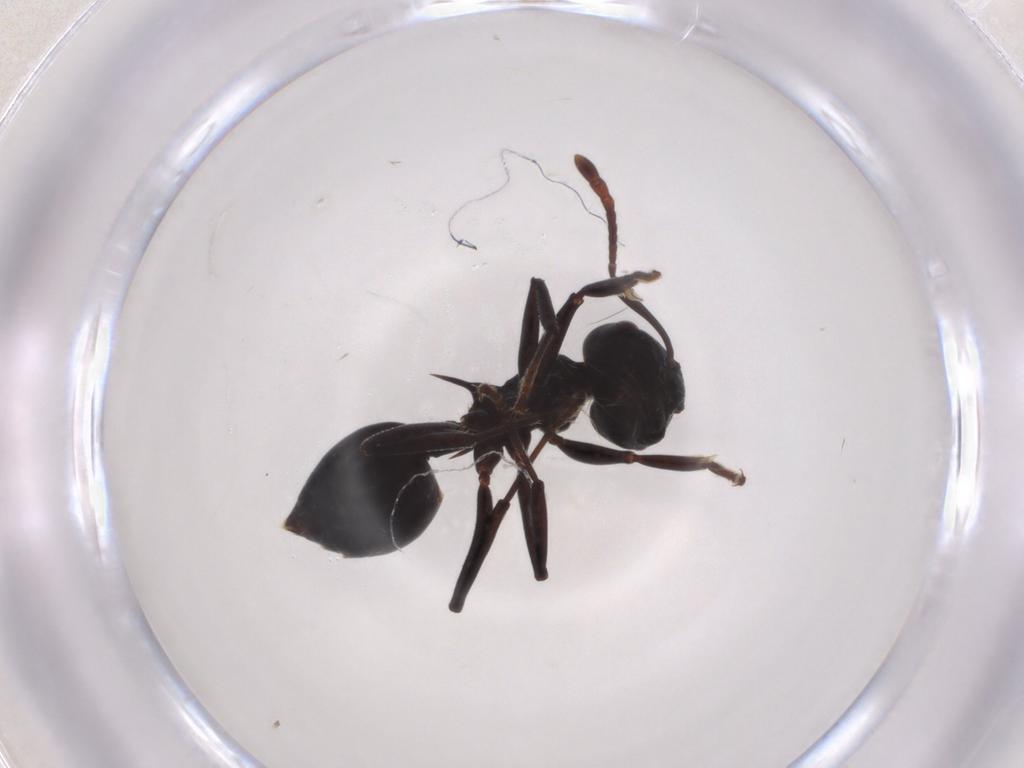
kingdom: Animalia
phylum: Arthropoda
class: Insecta
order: Hymenoptera
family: Formicidae
